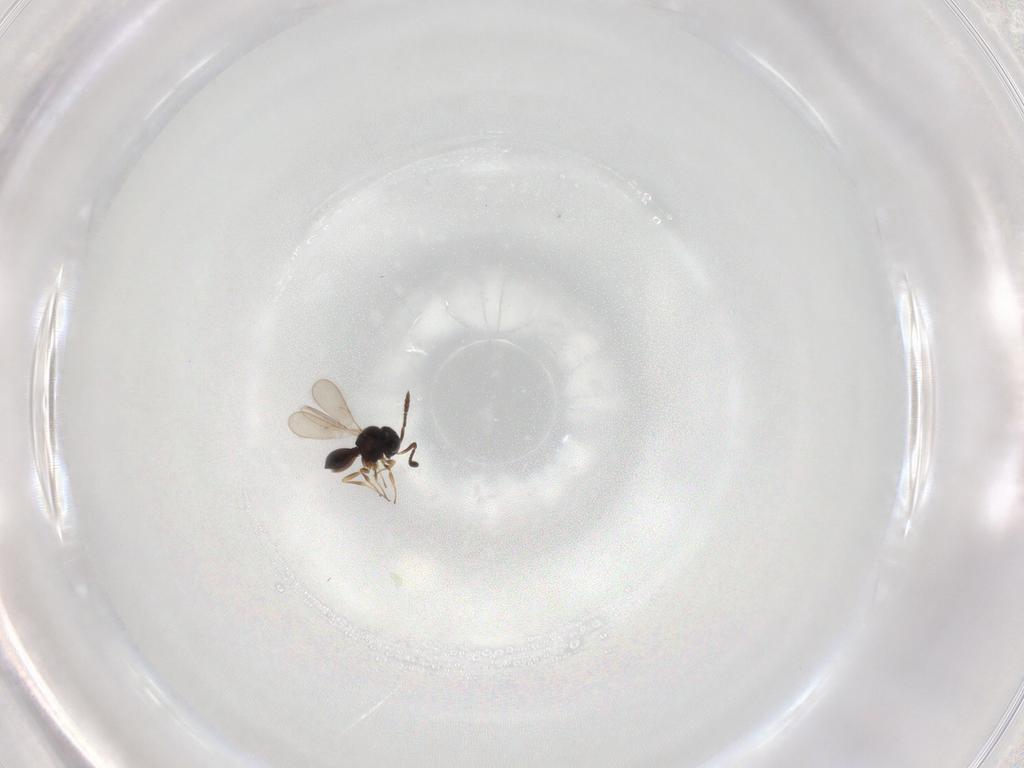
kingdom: Animalia
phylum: Arthropoda
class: Insecta
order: Hymenoptera
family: Scelionidae
